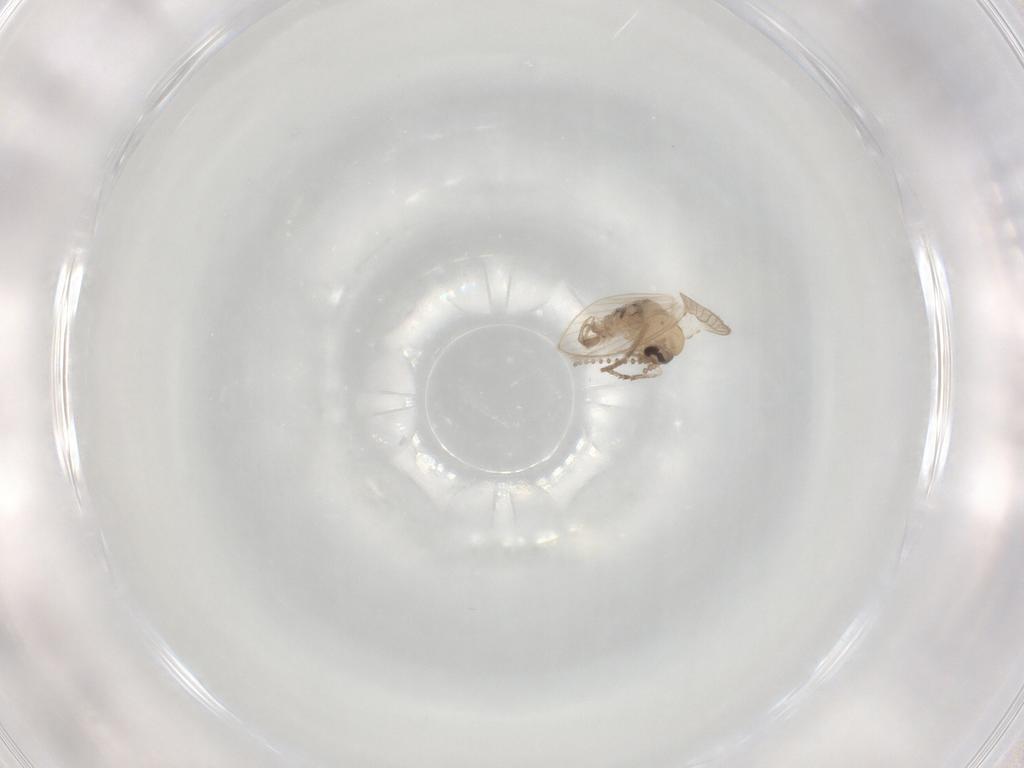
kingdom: Animalia
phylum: Arthropoda
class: Insecta
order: Diptera
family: Psychodidae
